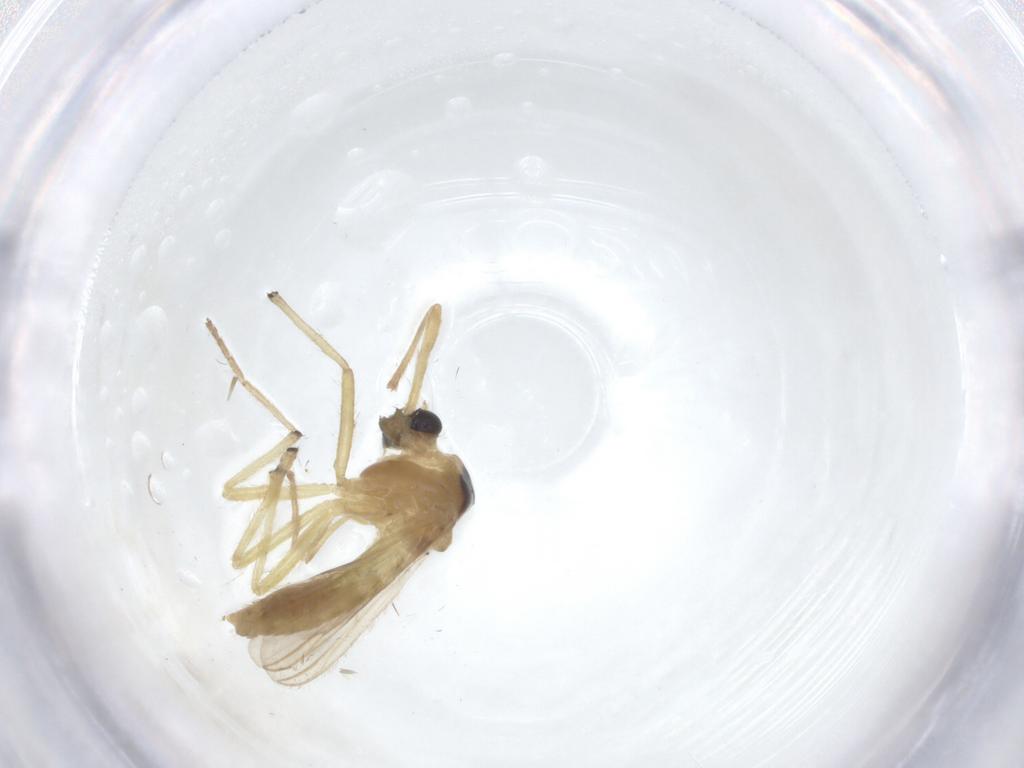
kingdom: Animalia
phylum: Arthropoda
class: Insecta
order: Diptera
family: Chironomidae
